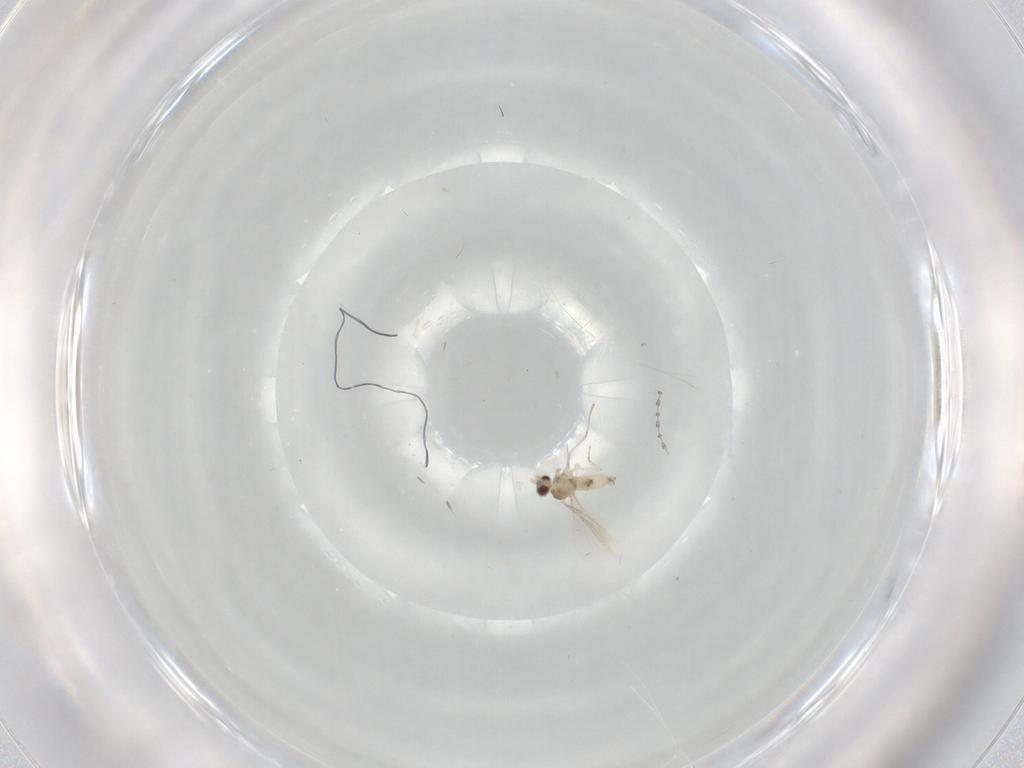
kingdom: Animalia
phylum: Arthropoda
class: Insecta
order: Diptera
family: Cecidomyiidae
